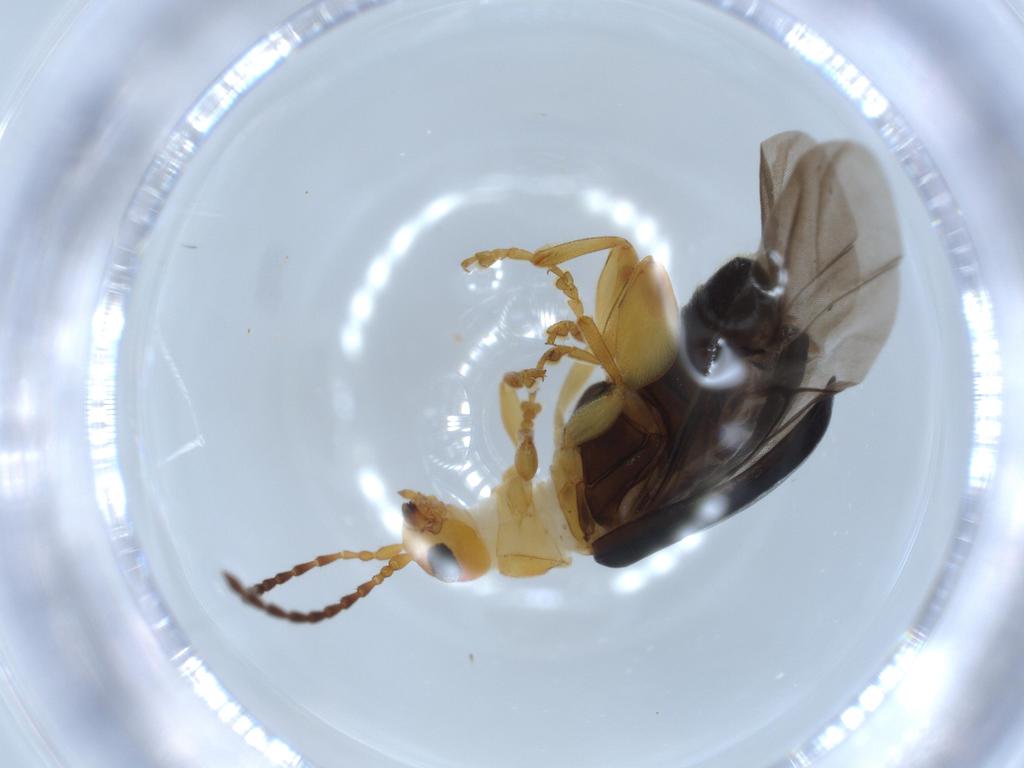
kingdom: Animalia
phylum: Arthropoda
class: Insecta
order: Coleoptera
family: Chrysomelidae
